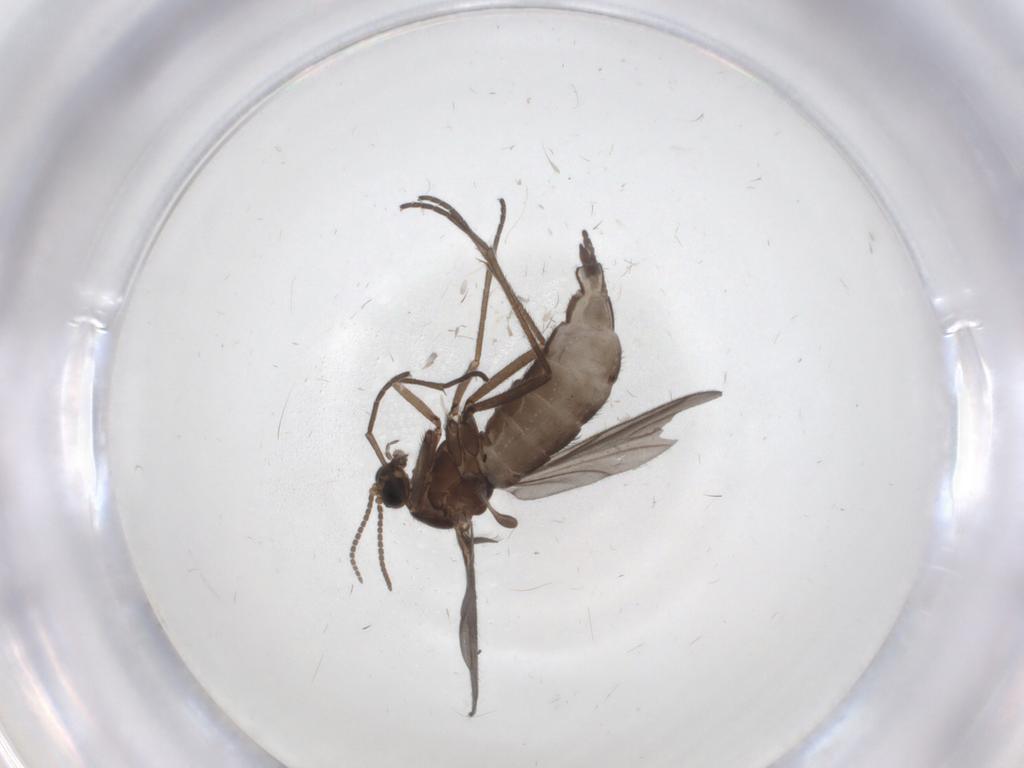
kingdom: Animalia
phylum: Arthropoda
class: Insecta
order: Diptera
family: Sciaridae
